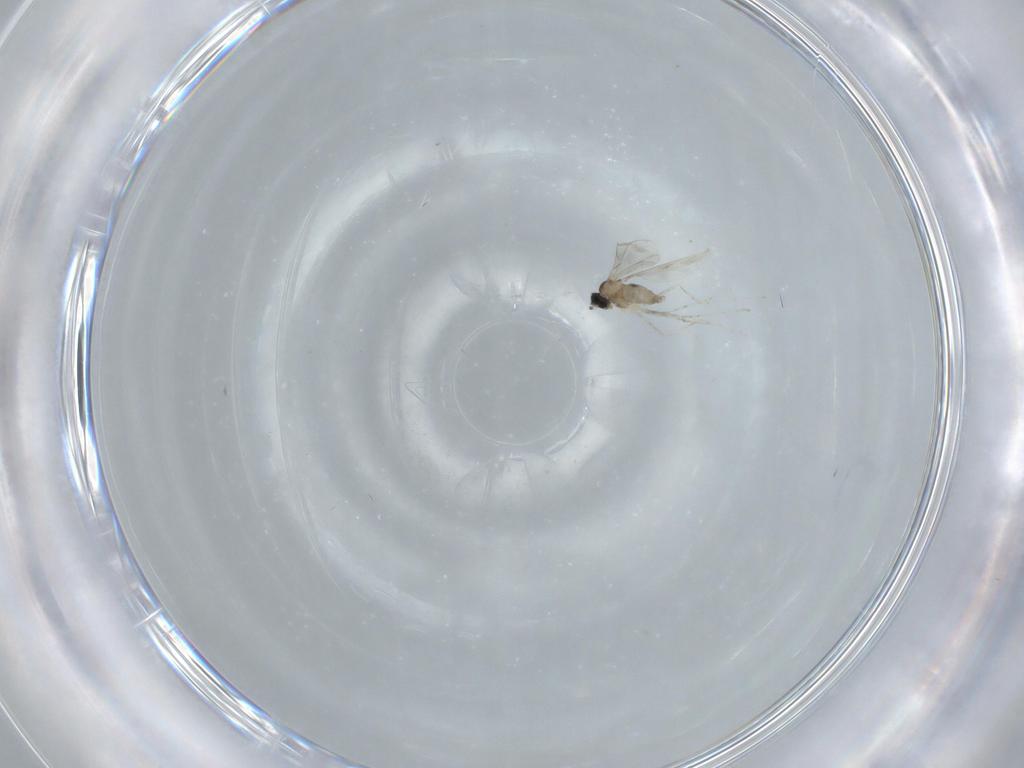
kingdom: Animalia
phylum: Arthropoda
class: Insecta
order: Diptera
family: Cecidomyiidae
